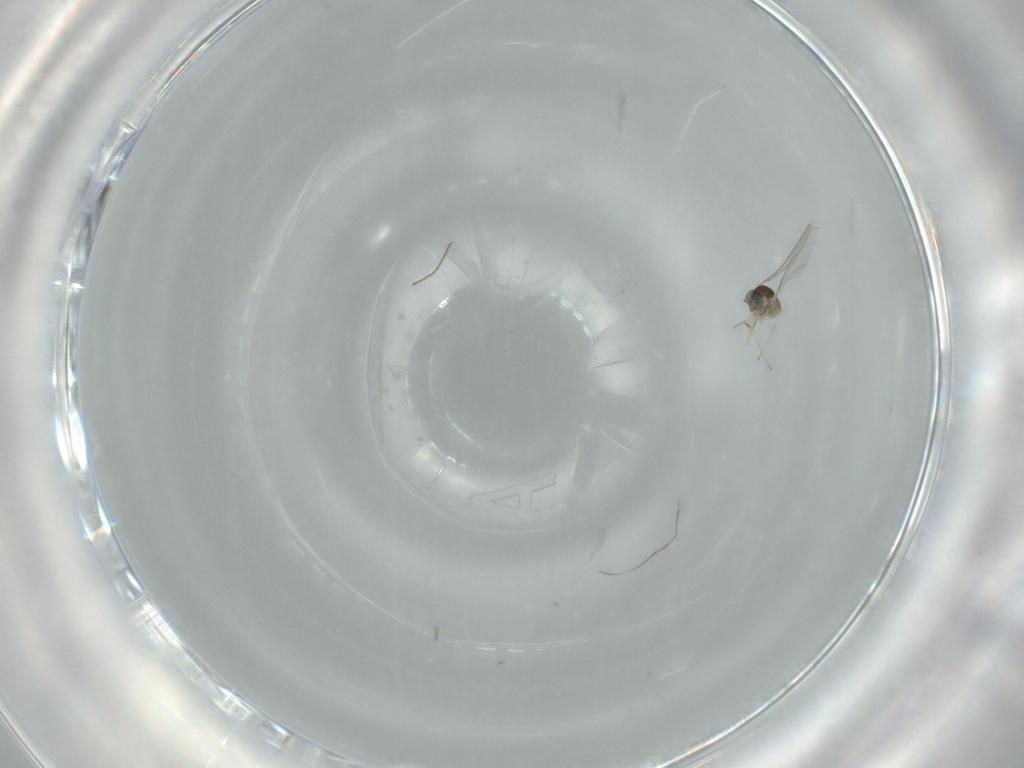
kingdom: Animalia
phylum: Arthropoda
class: Insecta
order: Diptera
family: Cecidomyiidae
